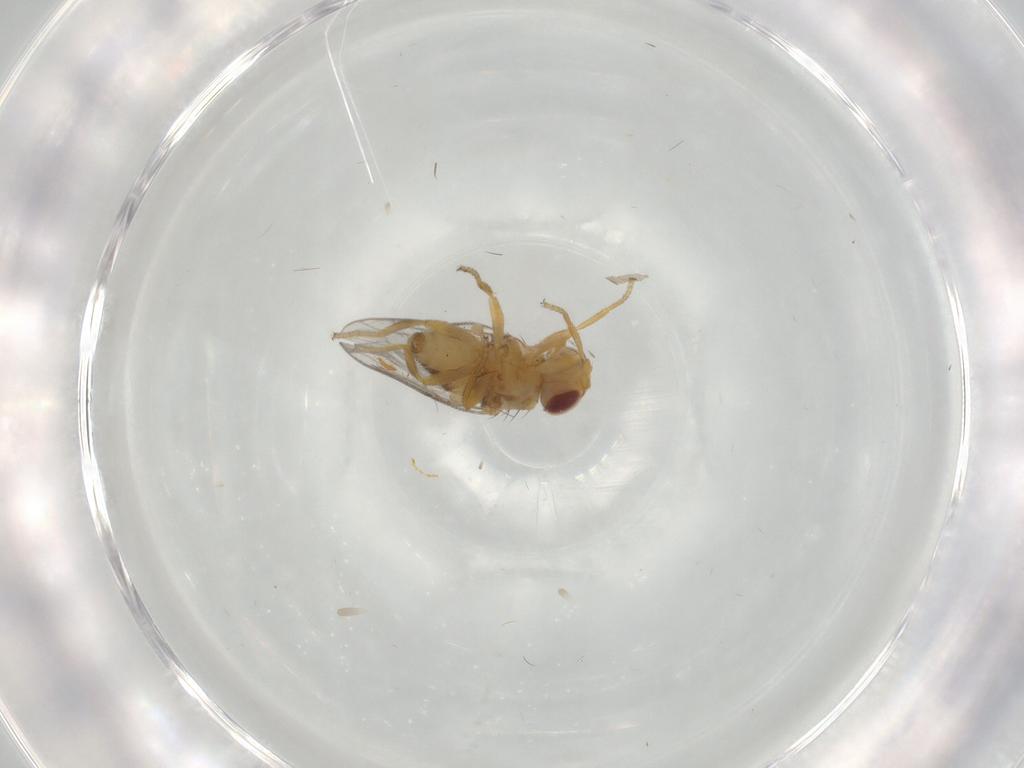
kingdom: Animalia
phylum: Arthropoda
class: Insecta
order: Diptera
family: Chloropidae
